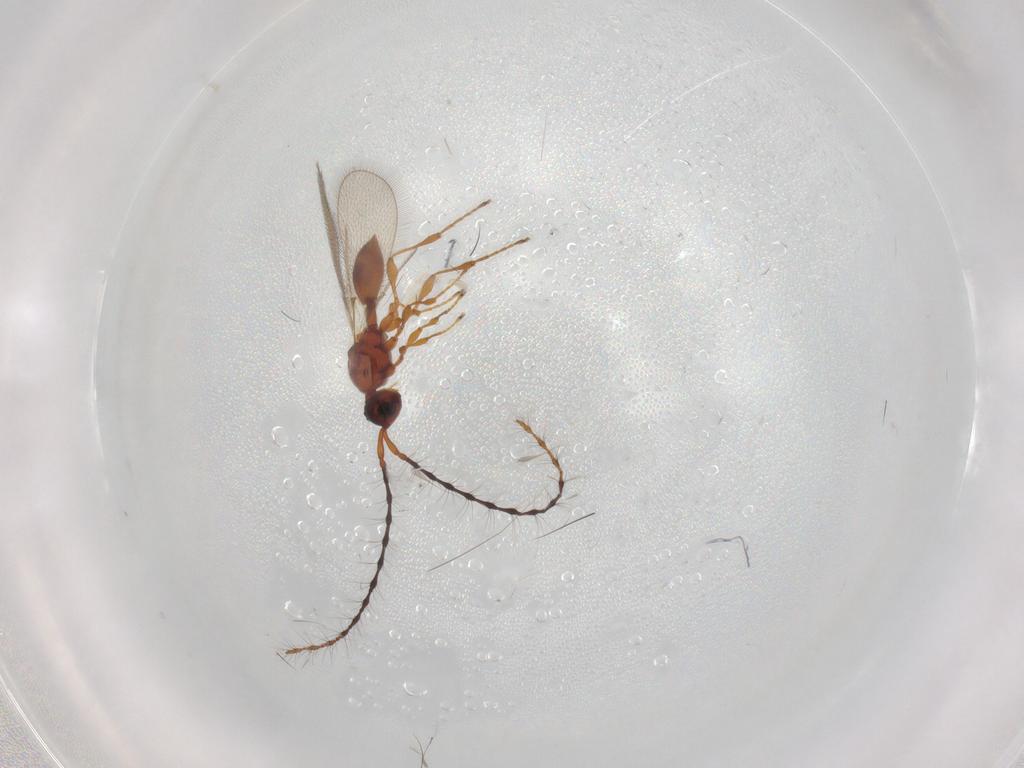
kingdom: Animalia
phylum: Arthropoda
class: Insecta
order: Hymenoptera
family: Diapriidae
